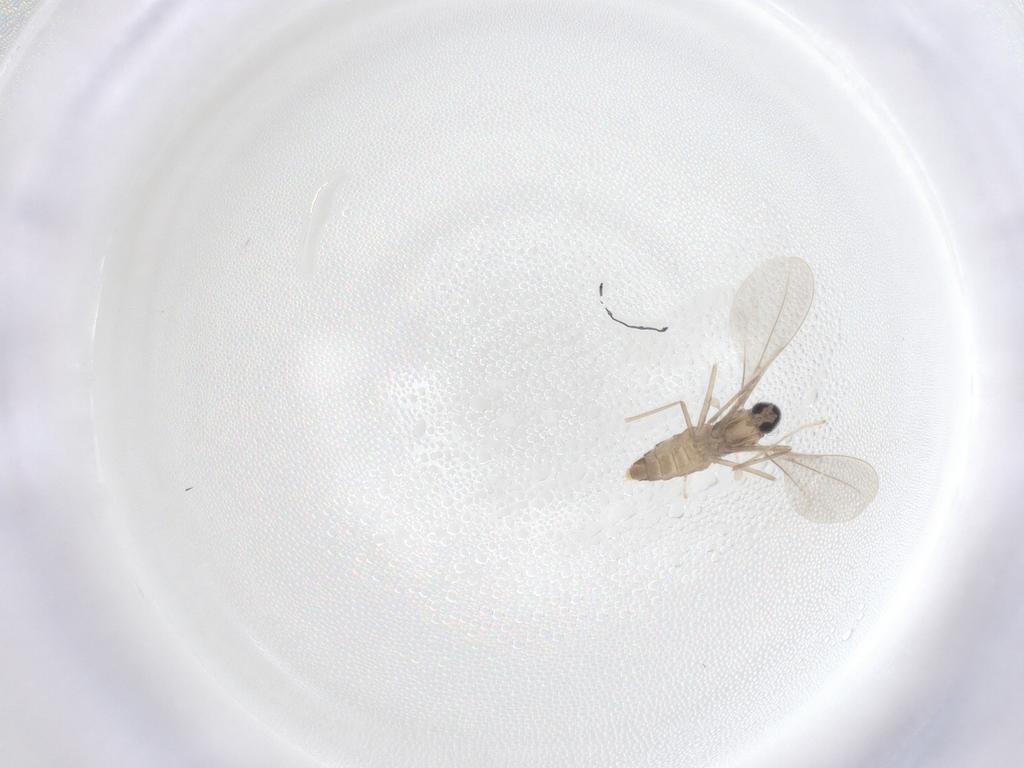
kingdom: Animalia
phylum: Arthropoda
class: Insecta
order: Diptera
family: Cecidomyiidae
